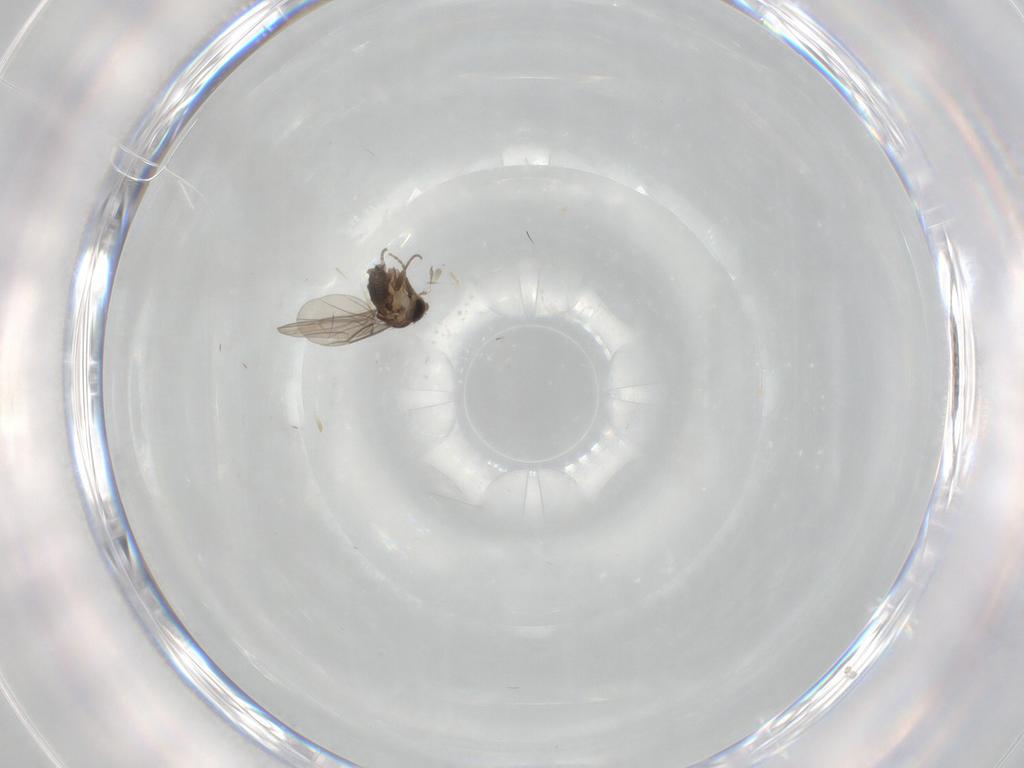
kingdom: Animalia
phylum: Arthropoda
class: Insecta
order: Diptera
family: Phoridae
